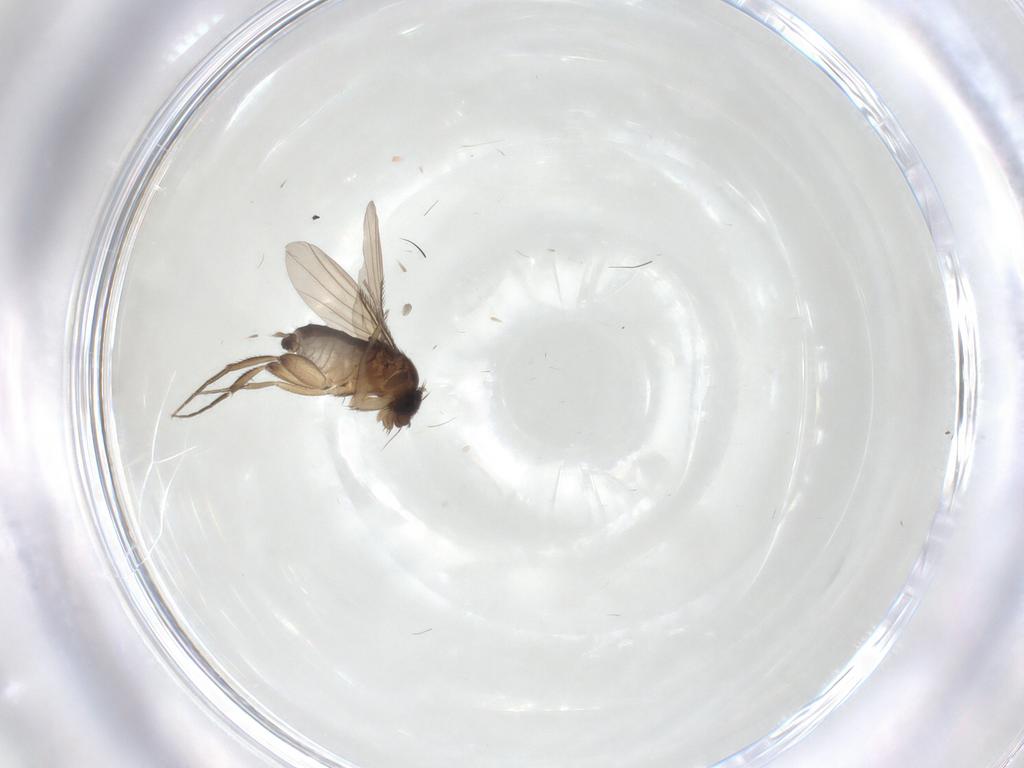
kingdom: Animalia
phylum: Arthropoda
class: Insecta
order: Diptera
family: Phoridae
